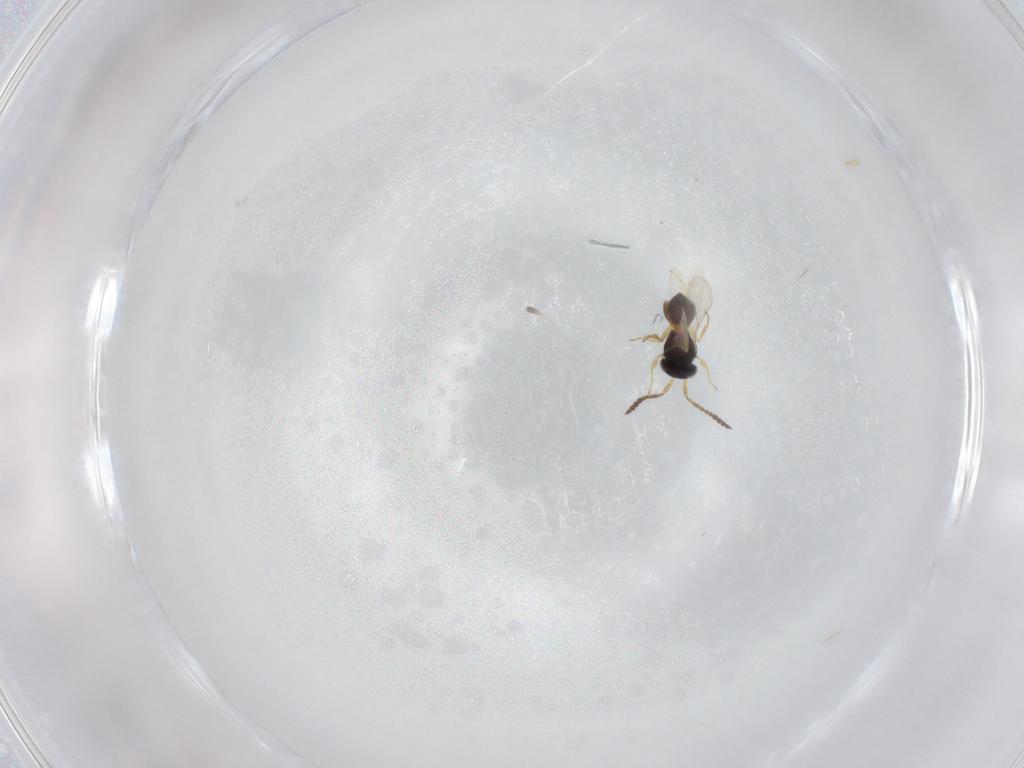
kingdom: Animalia
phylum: Arthropoda
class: Insecta
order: Hymenoptera
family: Scelionidae
